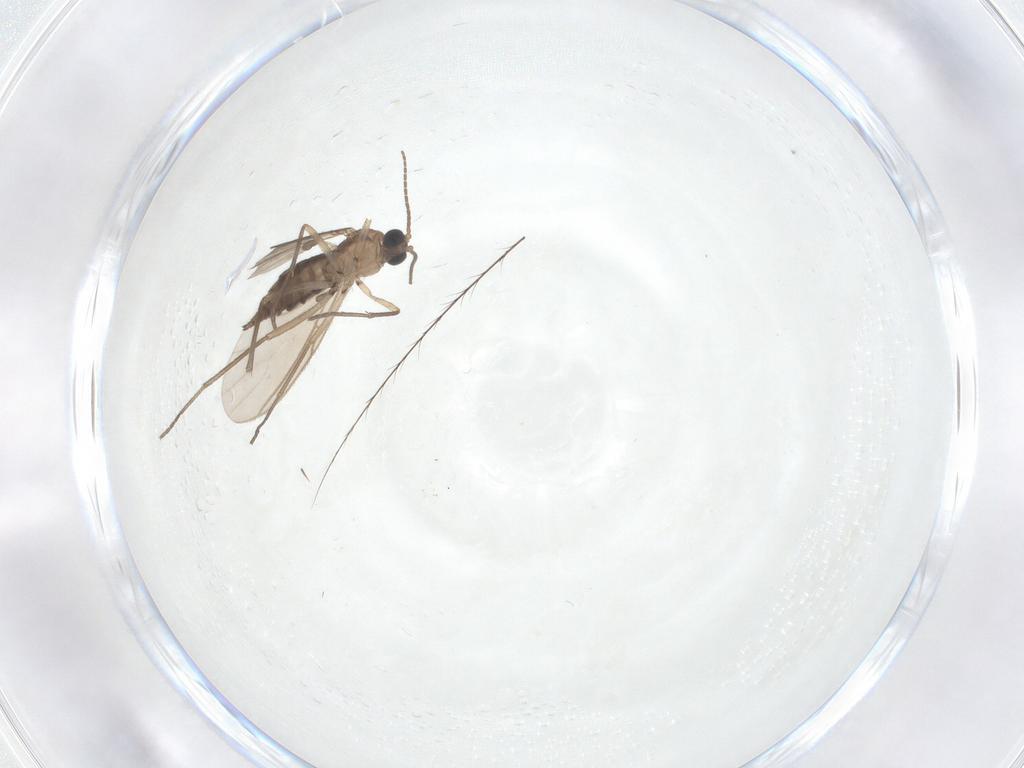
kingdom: Animalia
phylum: Arthropoda
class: Insecta
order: Diptera
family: Sciaridae
